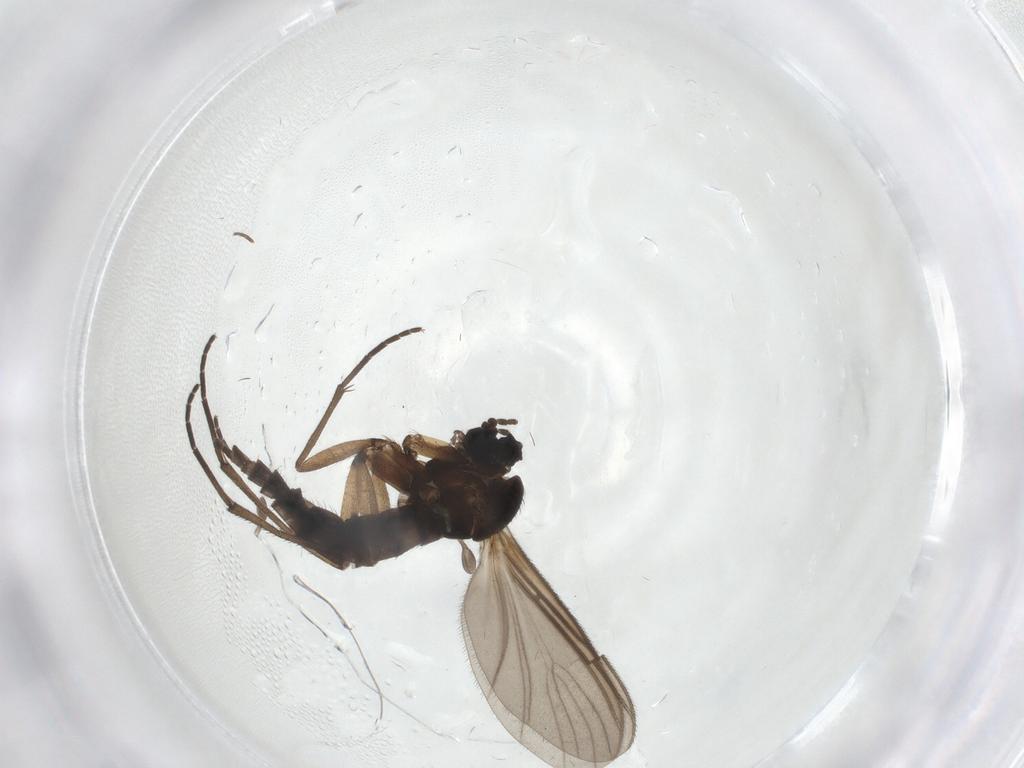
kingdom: Animalia
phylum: Arthropoda
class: Insecta
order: Diptera
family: Sciaridae
